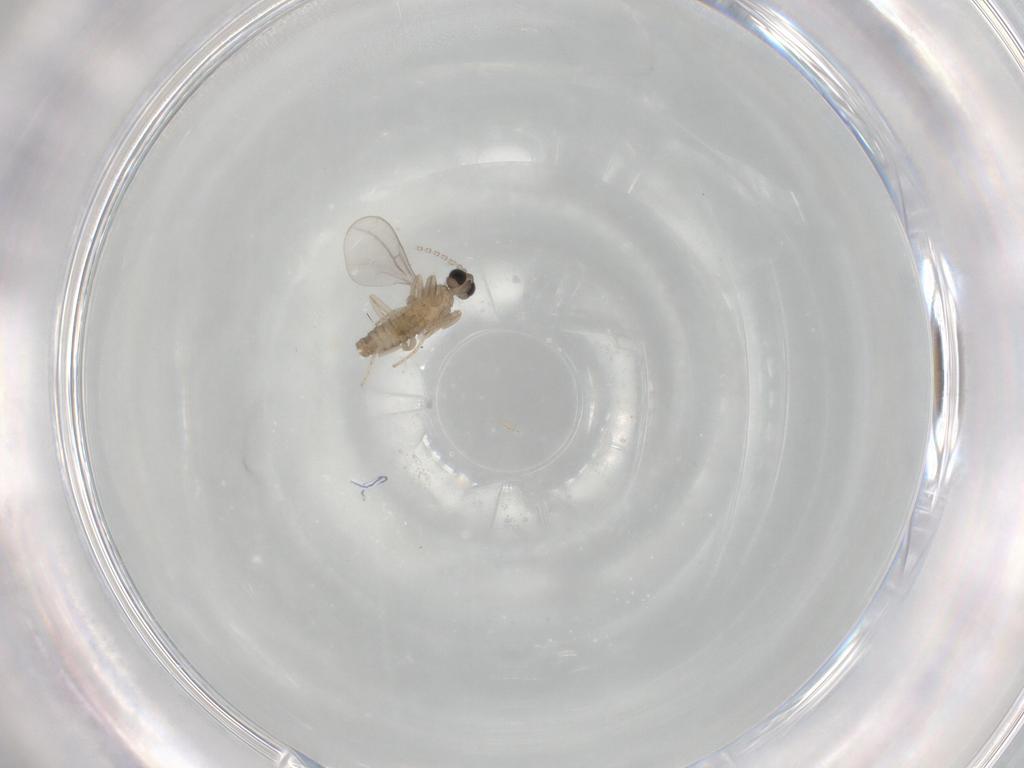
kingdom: Animalia
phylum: Arthropoda
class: Insecta
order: Diptera
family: Cecidomyiidae
